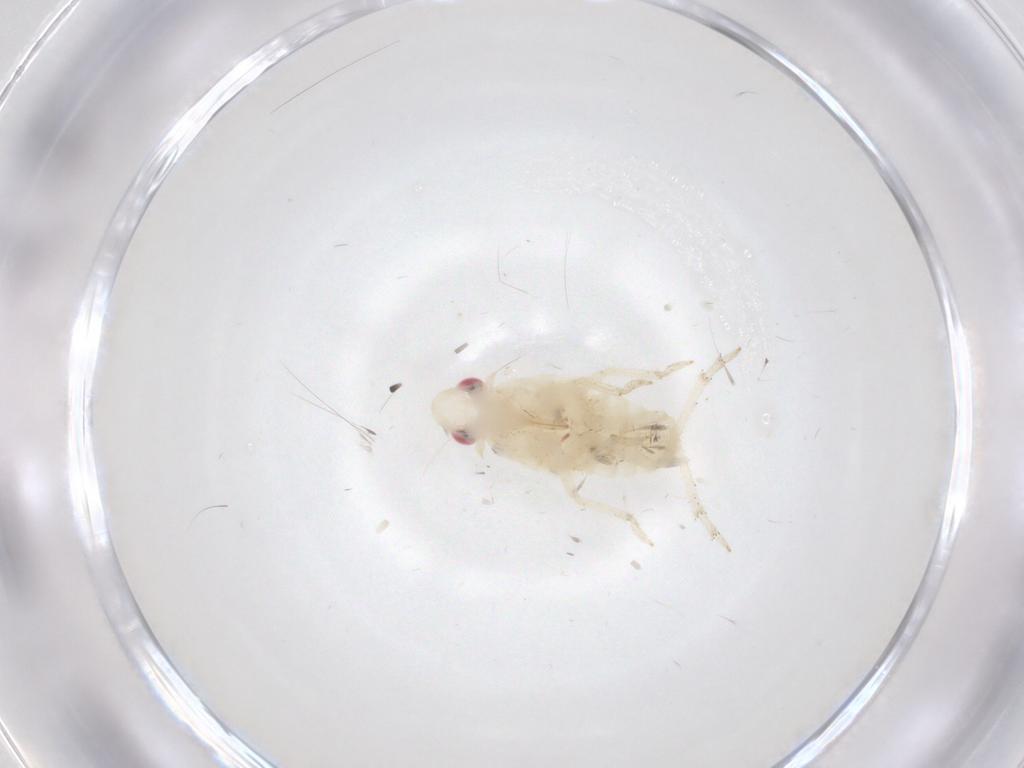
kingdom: Animalia
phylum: Arthropoda
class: Insecta
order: Hemiptera
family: Tropiduchidae
